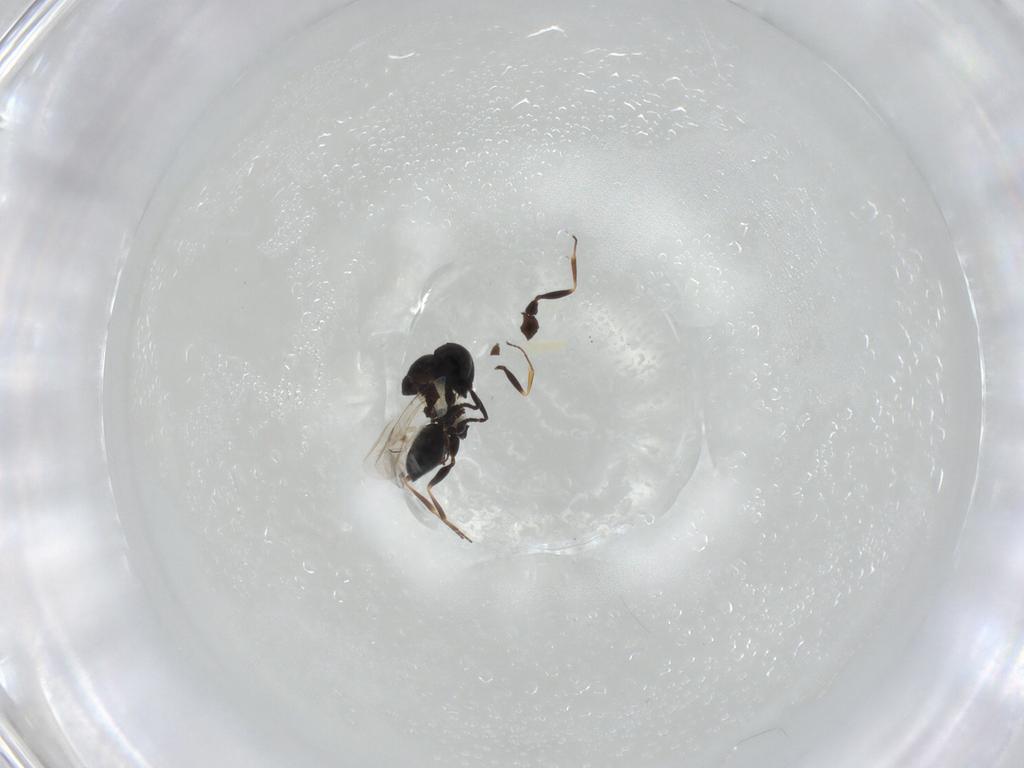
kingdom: Animalia
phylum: Arthropoda
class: Insecta
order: Hymenoptera
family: Scelionidae
